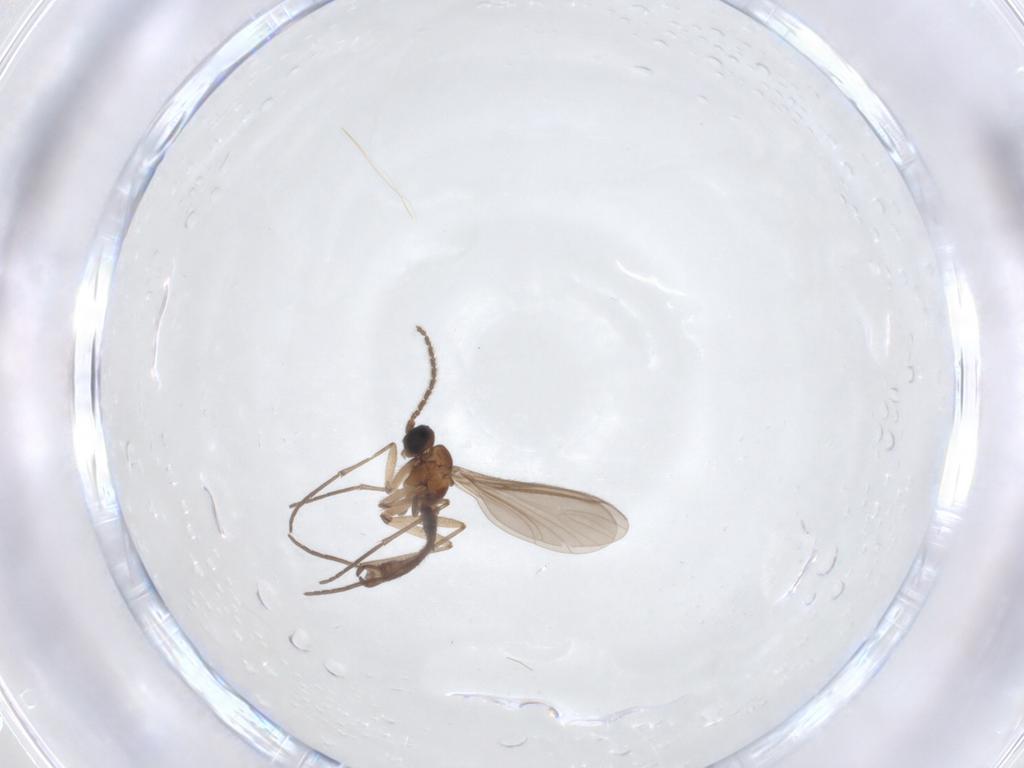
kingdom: Animalia
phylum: Arthropoda
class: Insecta
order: Diptera
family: Cecidomyiidae
